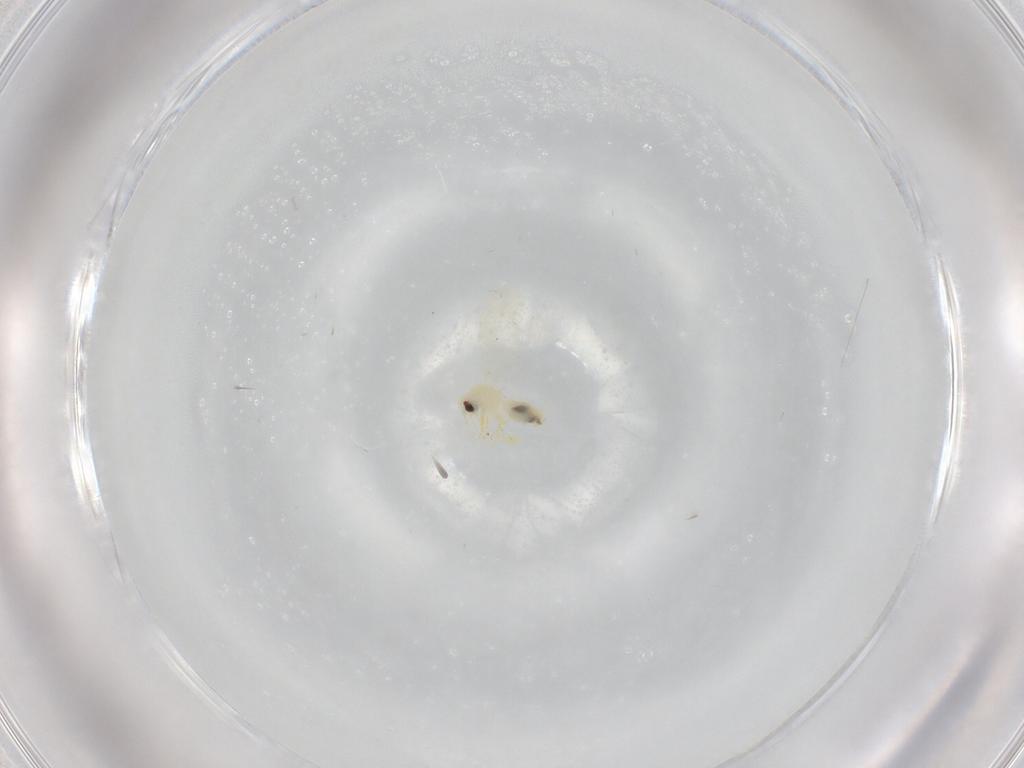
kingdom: Animalia
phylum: Arthropoda
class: Insecta
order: Hemiptera
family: Aleyrodidae
